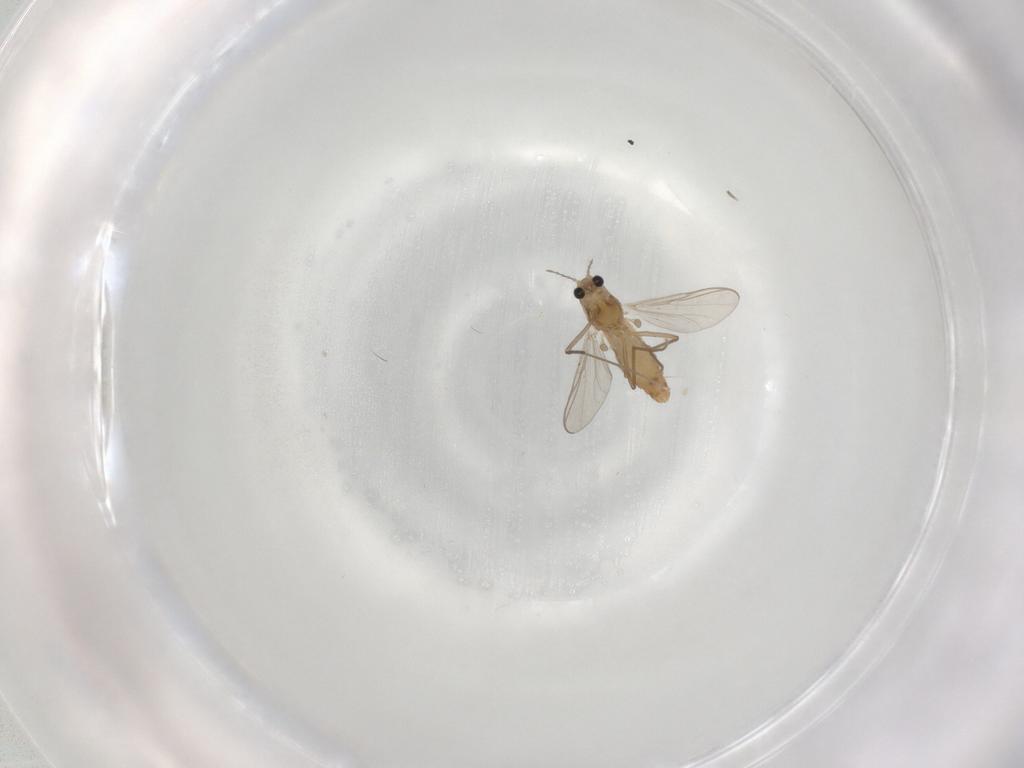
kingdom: Animalia
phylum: Arthropoda
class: Insecta
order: Diptera
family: Chironomidae
